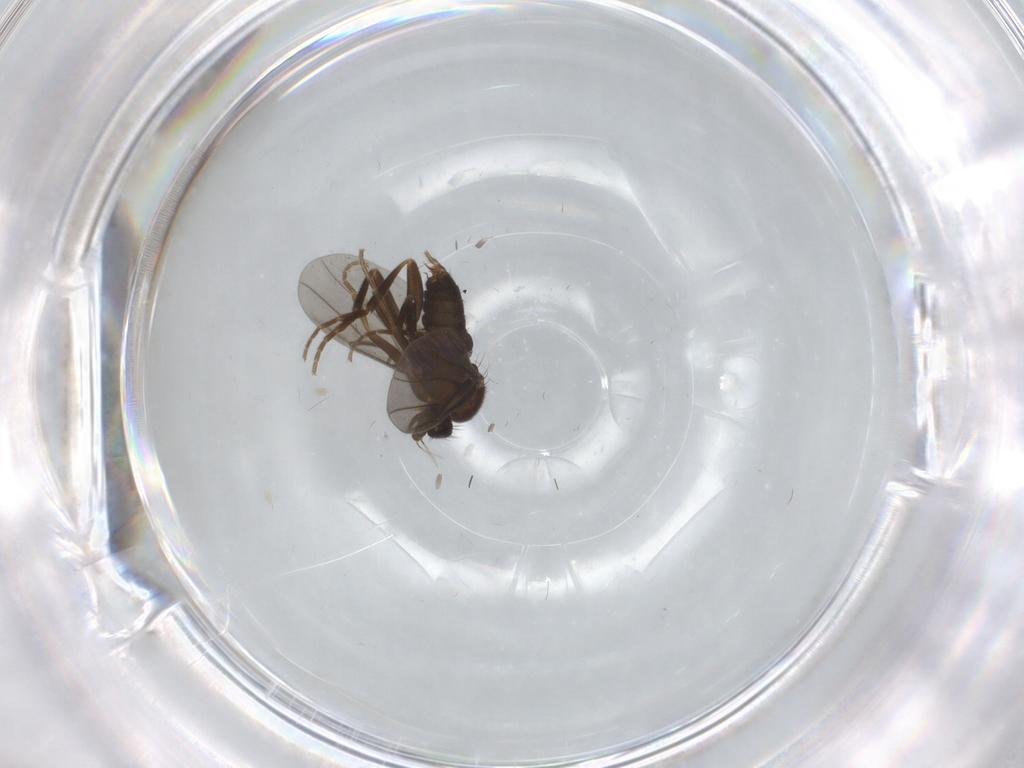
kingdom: Animalia
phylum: Arthropoda
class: Insecta
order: Diptera
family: Phoridae
